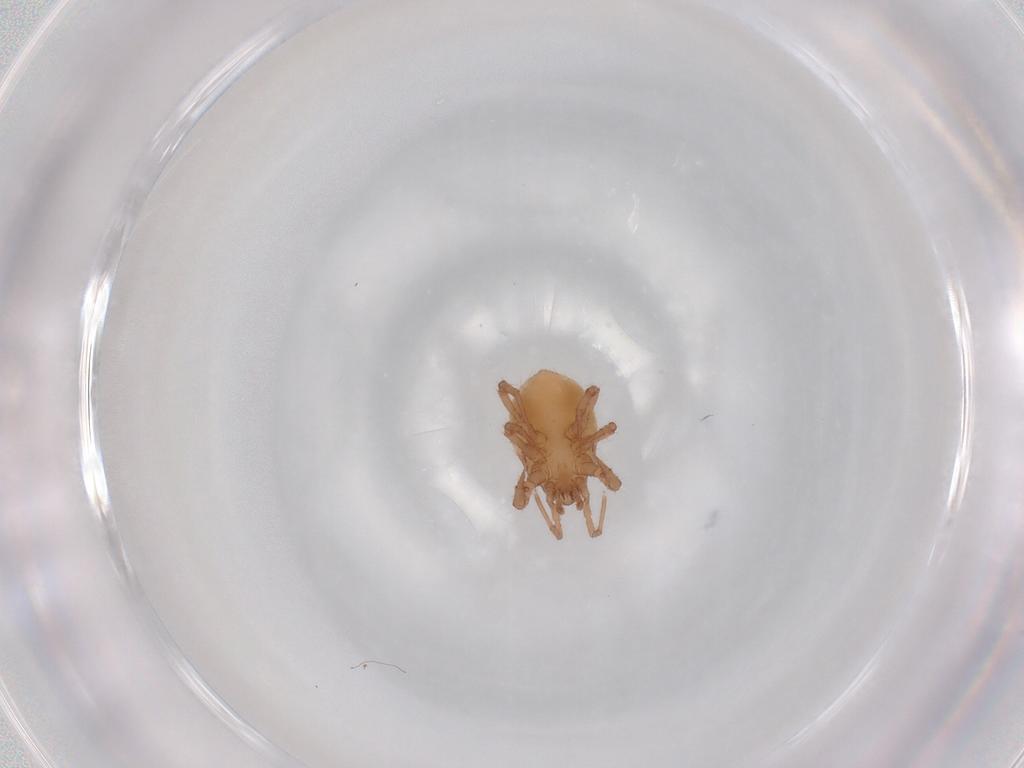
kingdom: Animalia
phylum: Arthropoda
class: Arachnida
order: Mesostigmata
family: Parasitidae
